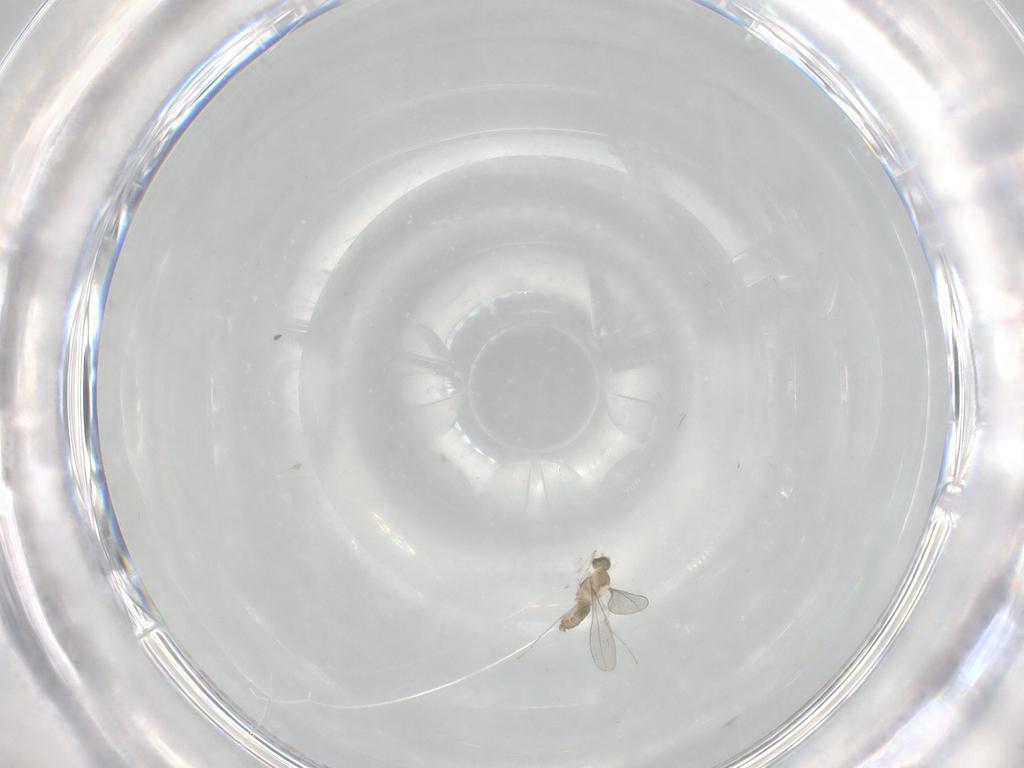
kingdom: Animalia
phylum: Arthropoda
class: Insecta
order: Diptera
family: Cecidomyiidae
